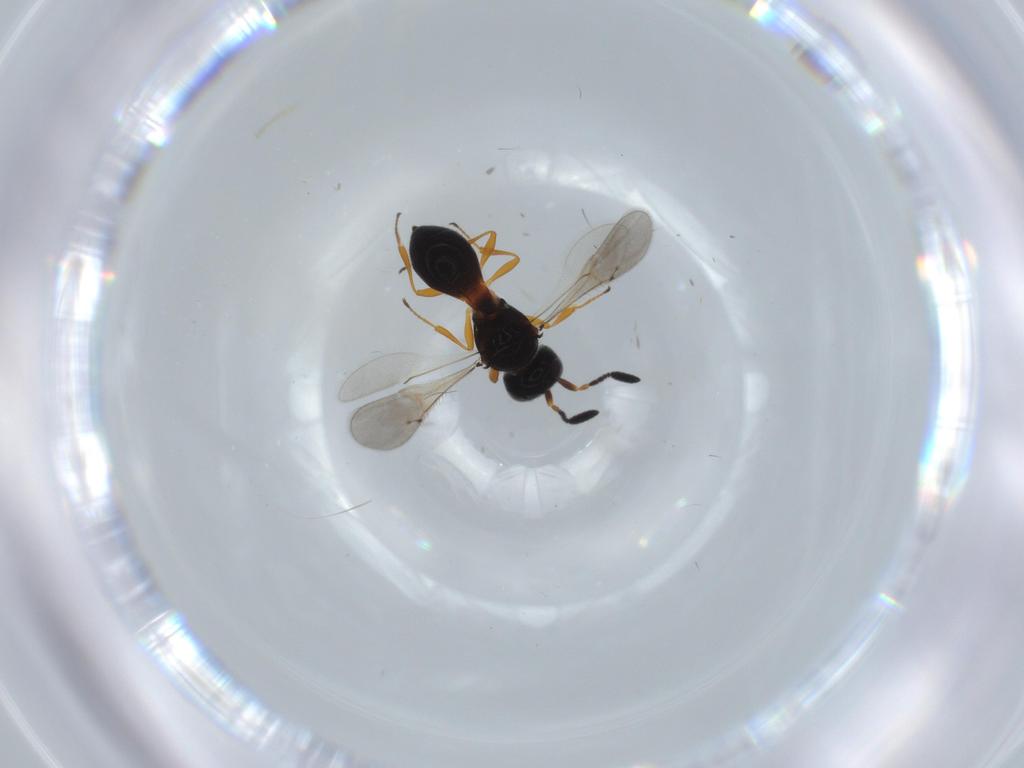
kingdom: Animalia
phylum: Arthropoda
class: Insecta
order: Hymenoptera
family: Scelionidae
